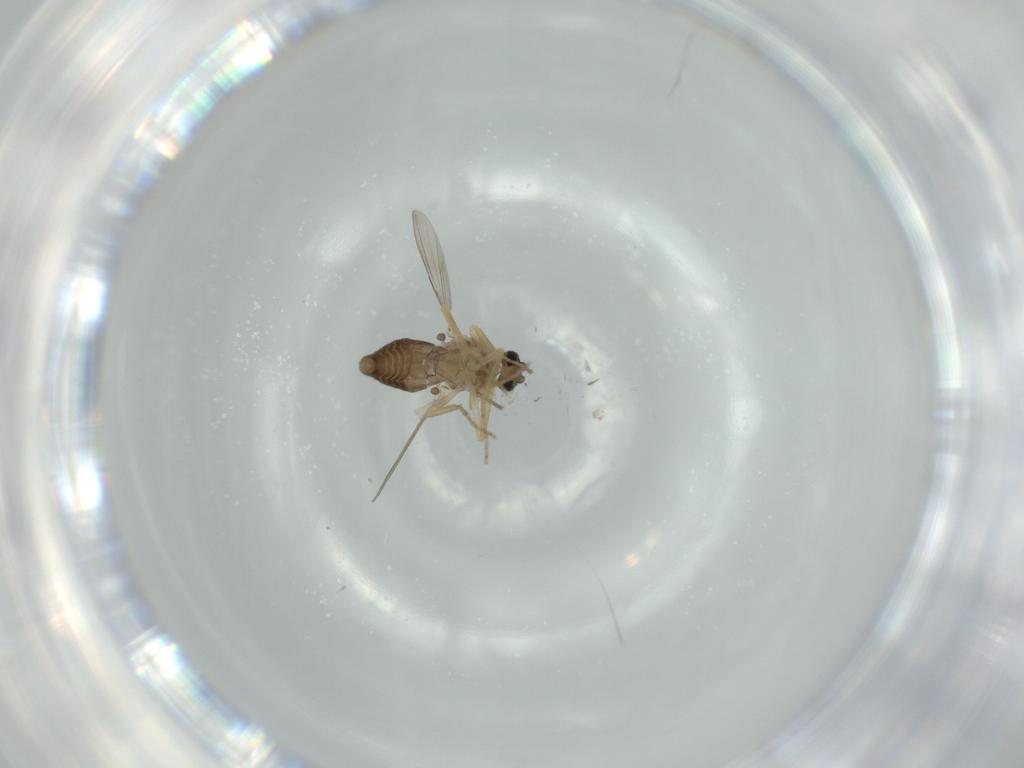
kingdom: Animalia
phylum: Arthropoda
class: Insecta
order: Diptera
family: Ceratopogonidae
